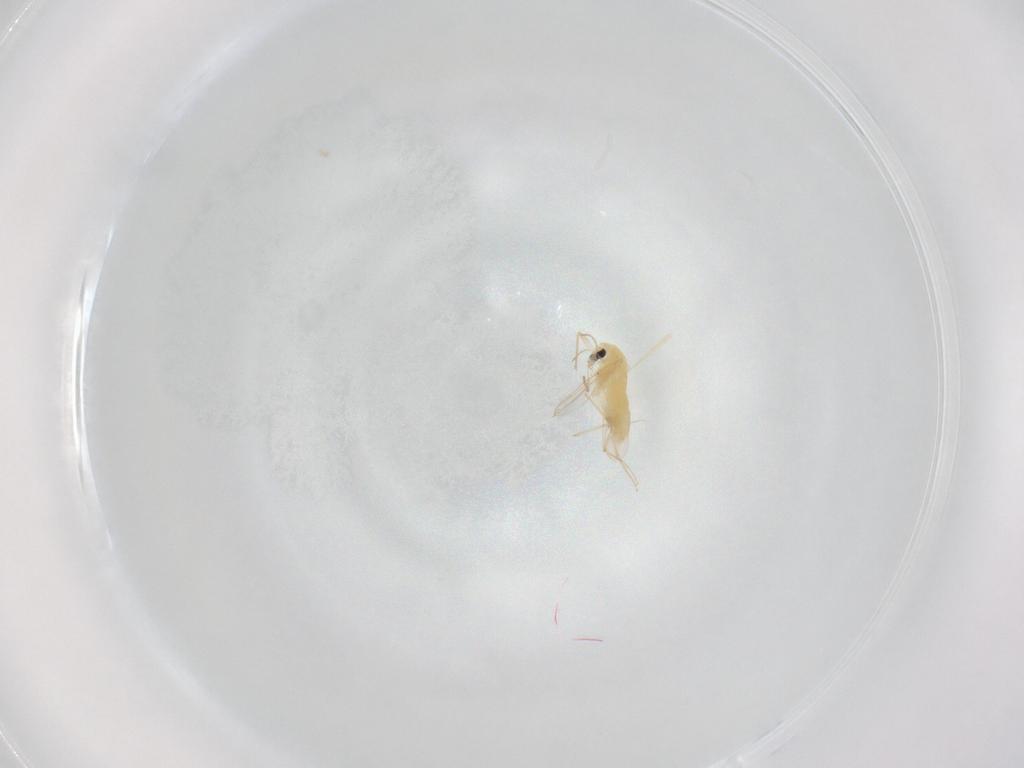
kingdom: Animalia
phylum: Arthropoda
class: Insecta
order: Diptera
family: Chironomidae
